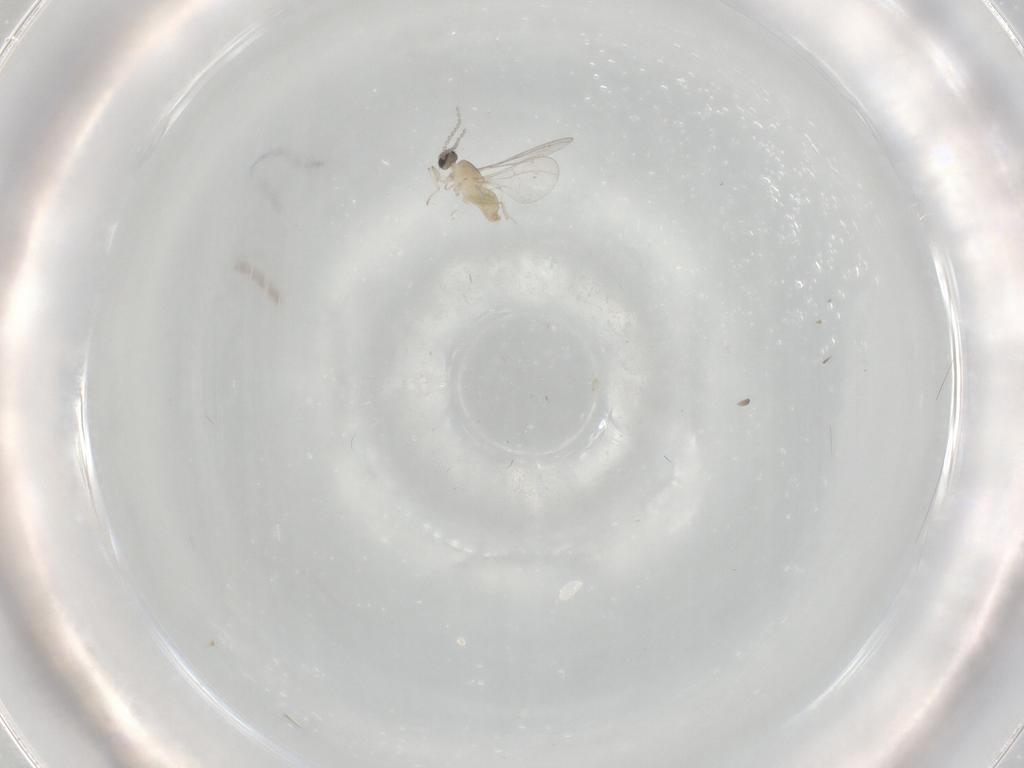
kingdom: Animalia
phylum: Arthropoda
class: Insecta
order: Diptera
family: Cecidomyiidae
